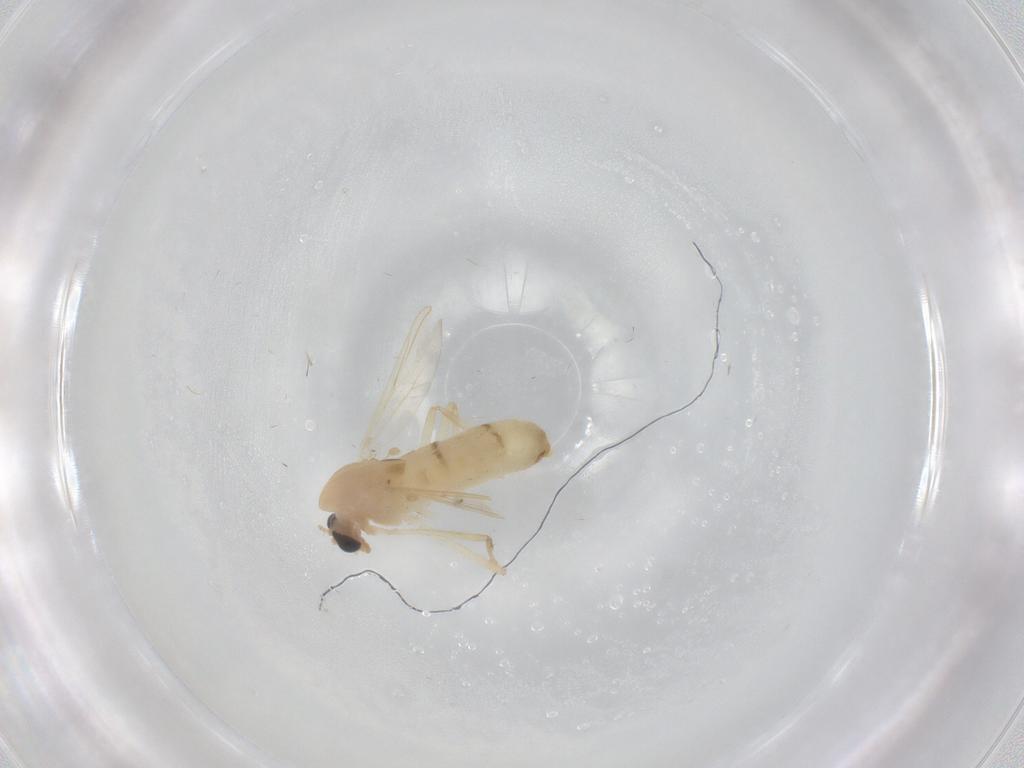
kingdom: Animalia
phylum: Arthropoda
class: Insecta
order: Diptera
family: Chironomidae
